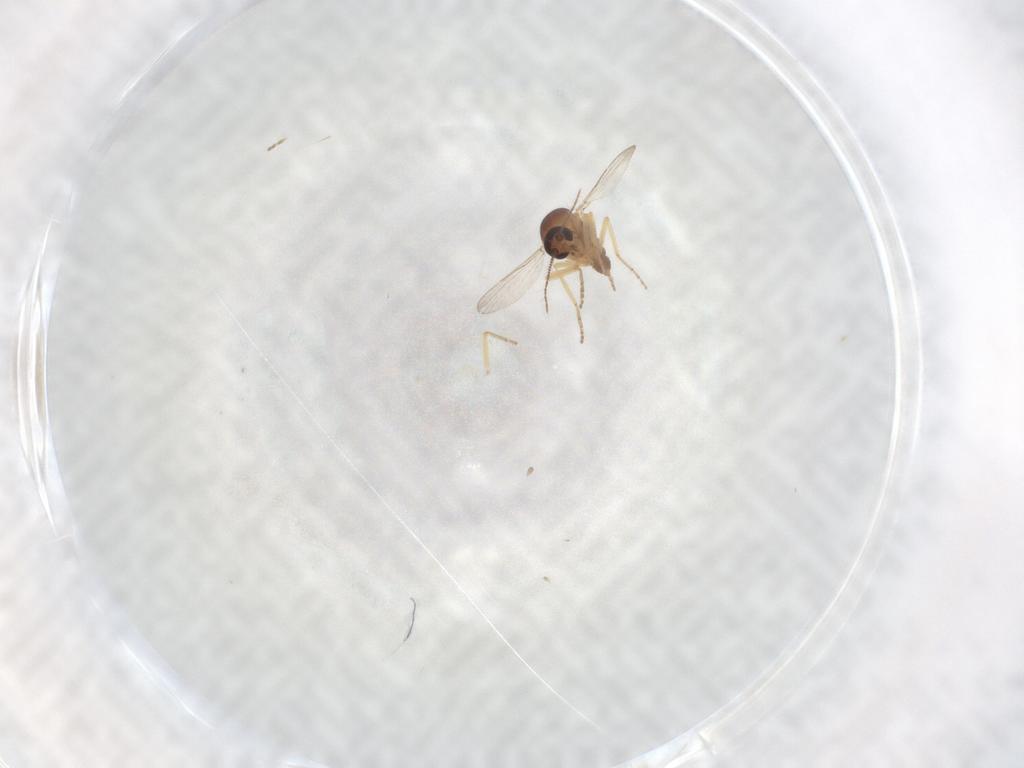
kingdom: Animalia
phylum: Arthropoda
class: Insecta
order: Diptera
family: Ceratopogonidae
